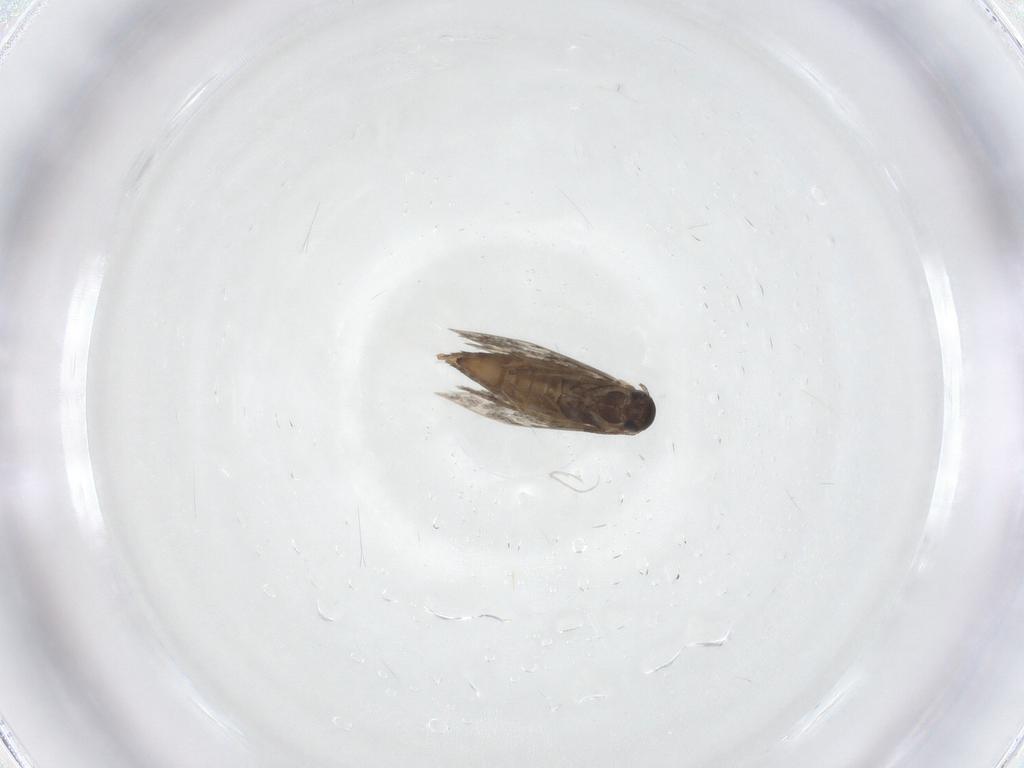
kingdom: Animalia
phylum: Arthropoda
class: Insecta
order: Lepidoptera
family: Heliozelidae
